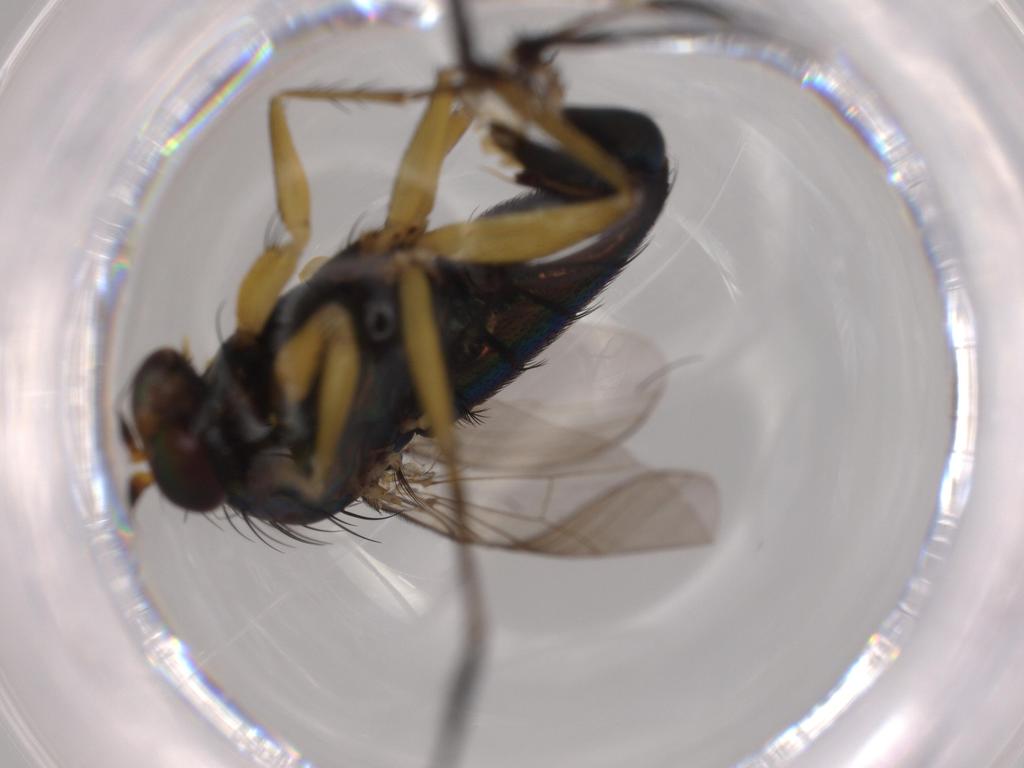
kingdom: Animalia
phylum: Arthropoda
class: Insecta
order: Diptera
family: Dolichopodidae
